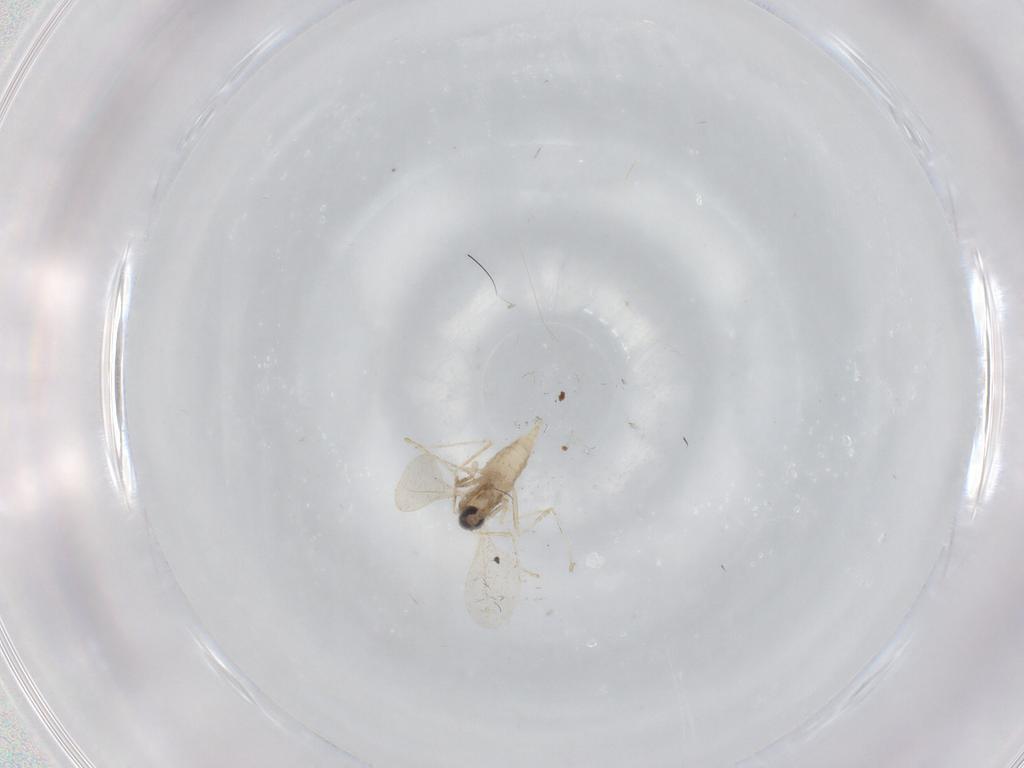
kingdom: Animalia
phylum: Arthropoda
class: Insecta
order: Diptera
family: Cecidomyiidae
